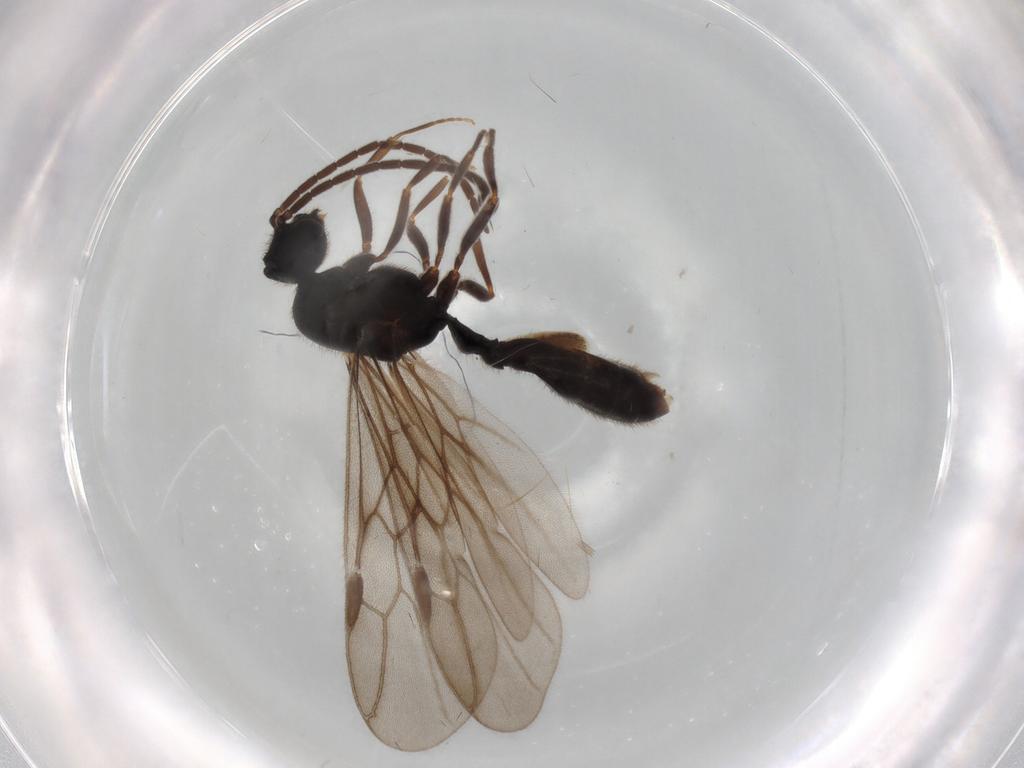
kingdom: Animalia
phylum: Arthropoda
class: Insecta
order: Hymenoptera
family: Formicidae
